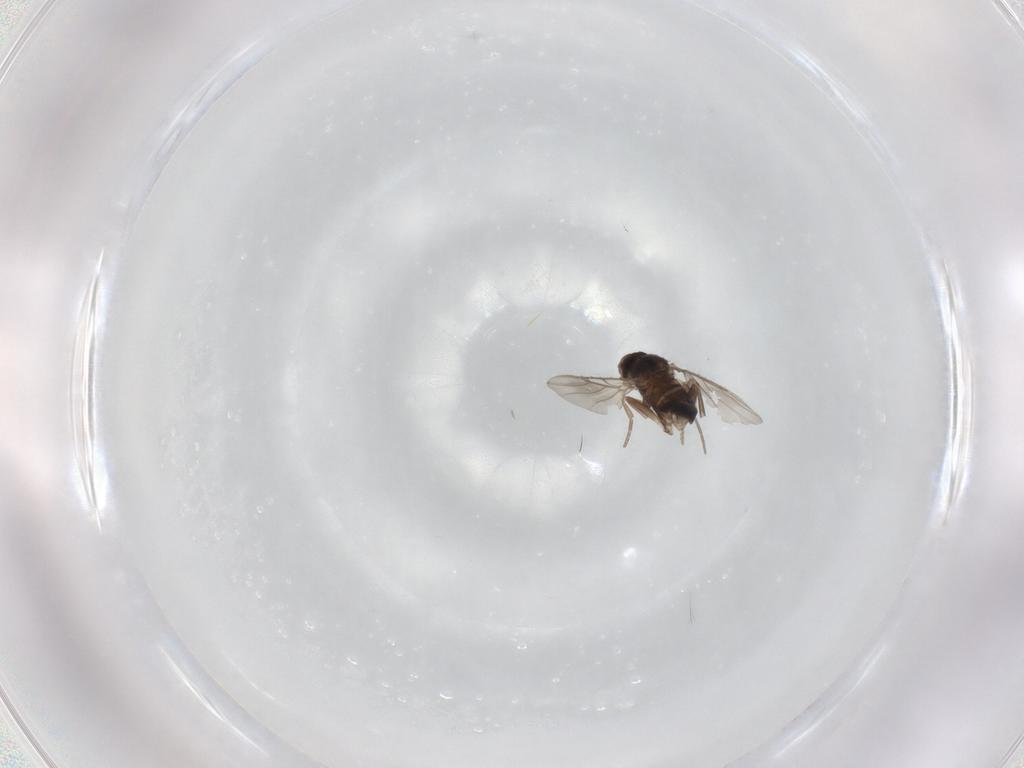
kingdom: Animalia
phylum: Arthropoda
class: Insecta
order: Diptera
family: Phoridae
